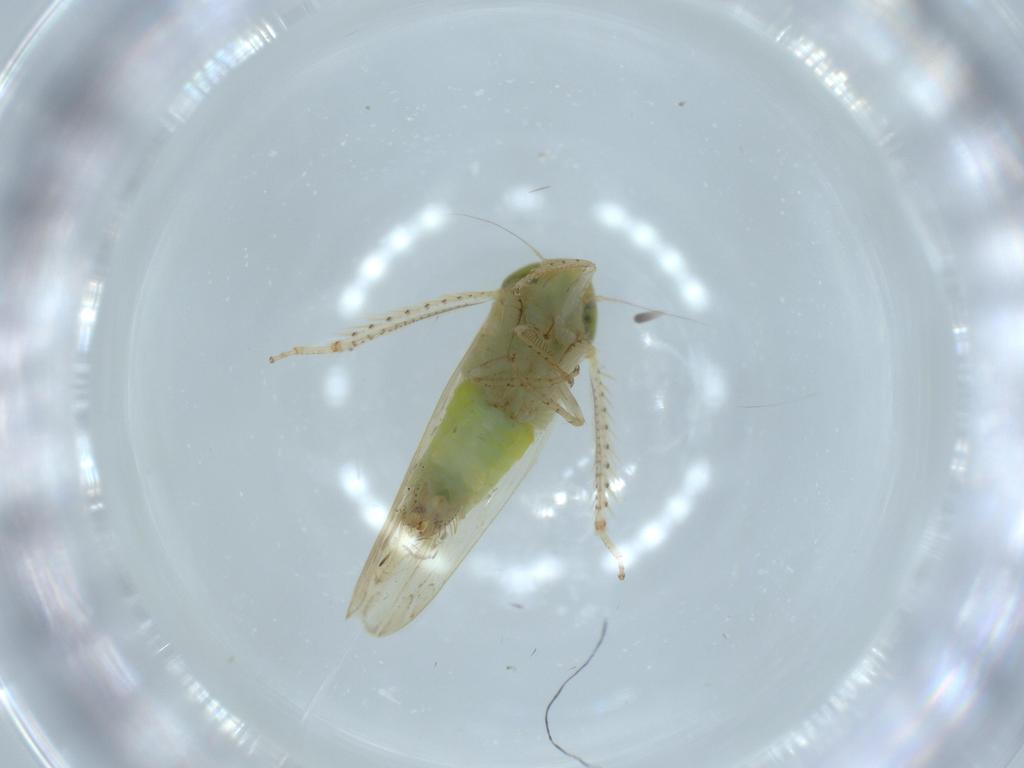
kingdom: Animalia
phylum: Arthropoda
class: Insecta
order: Hemiptera
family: Cicadellidae
